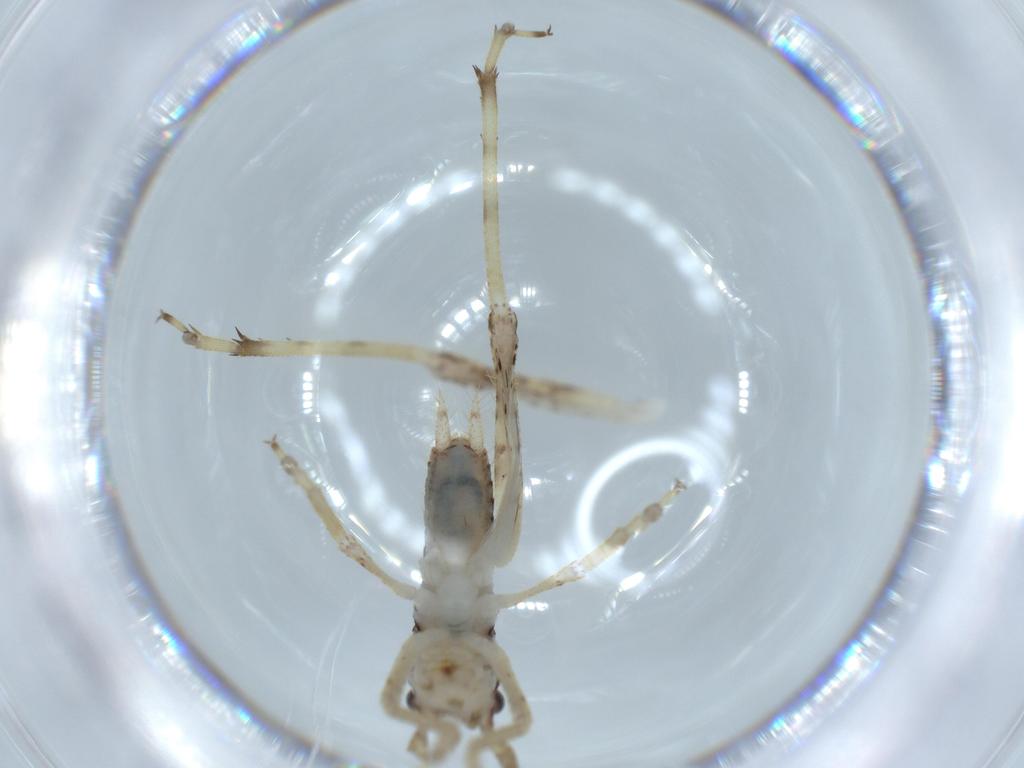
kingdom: Animalia
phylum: Arthropoda
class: Insecta
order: Orthoptera
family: Gryllidae
